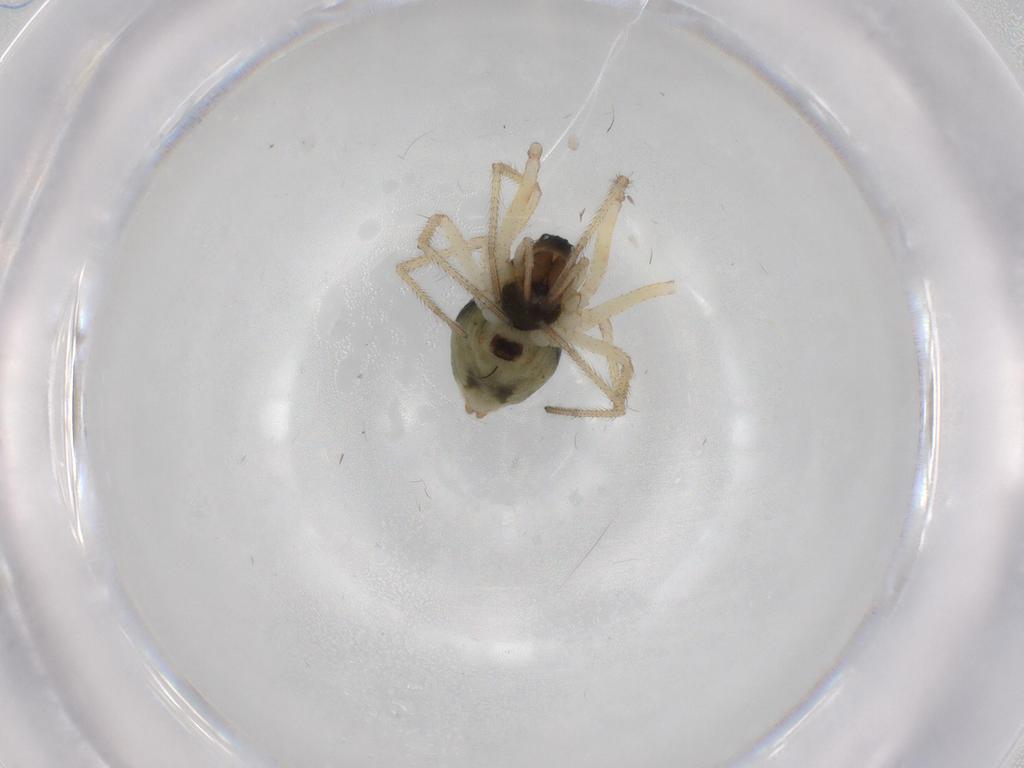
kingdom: Animalia
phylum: Arthropoda
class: Arachnida
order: Araneae
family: Linyphiidae
